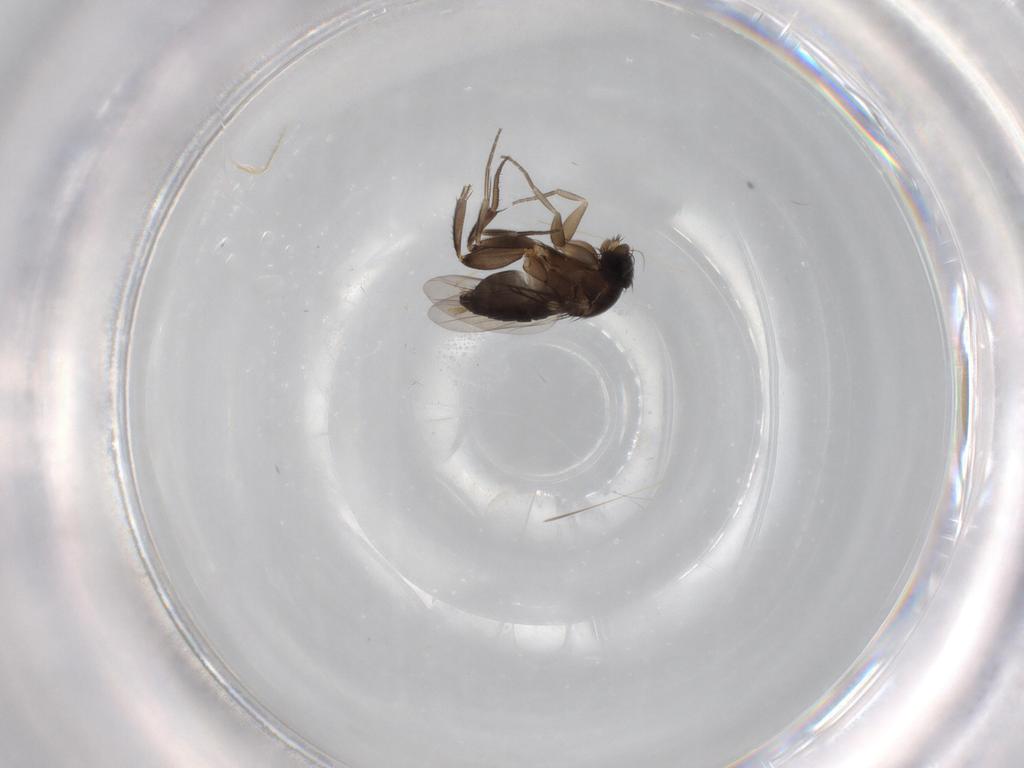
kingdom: Animalia
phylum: Arthropoda
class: Insecta
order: Diptera
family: Phoridae
